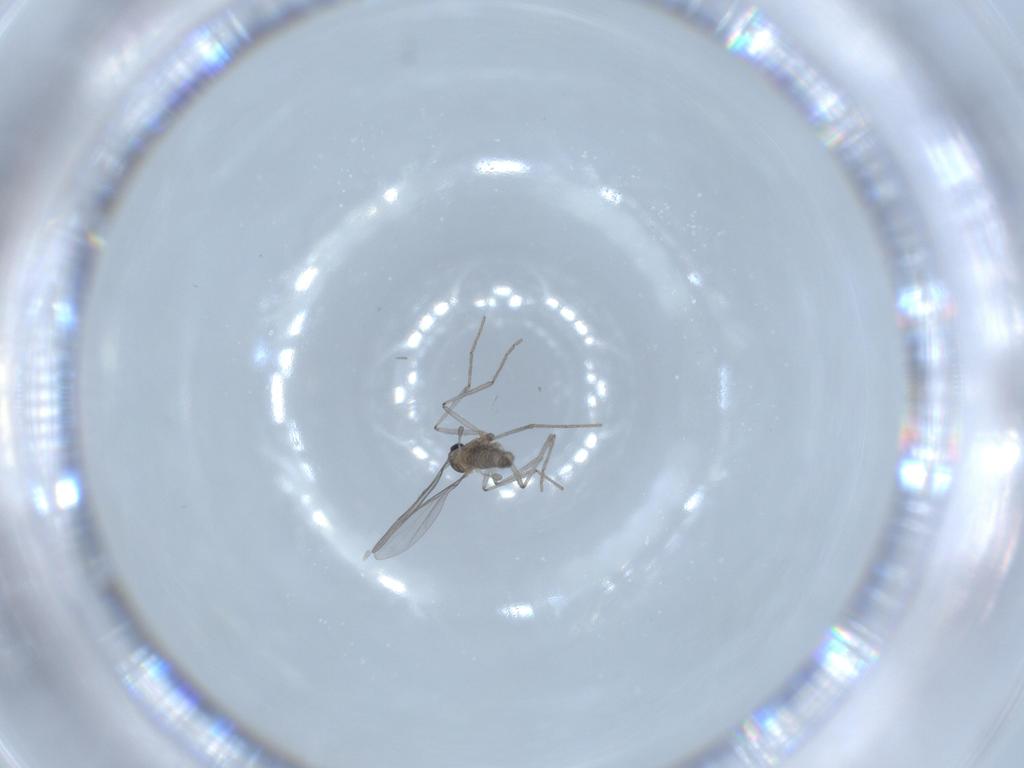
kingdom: Animalia
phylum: Arthropoda
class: Insecta
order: Diptera
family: Cecidomyiidae
